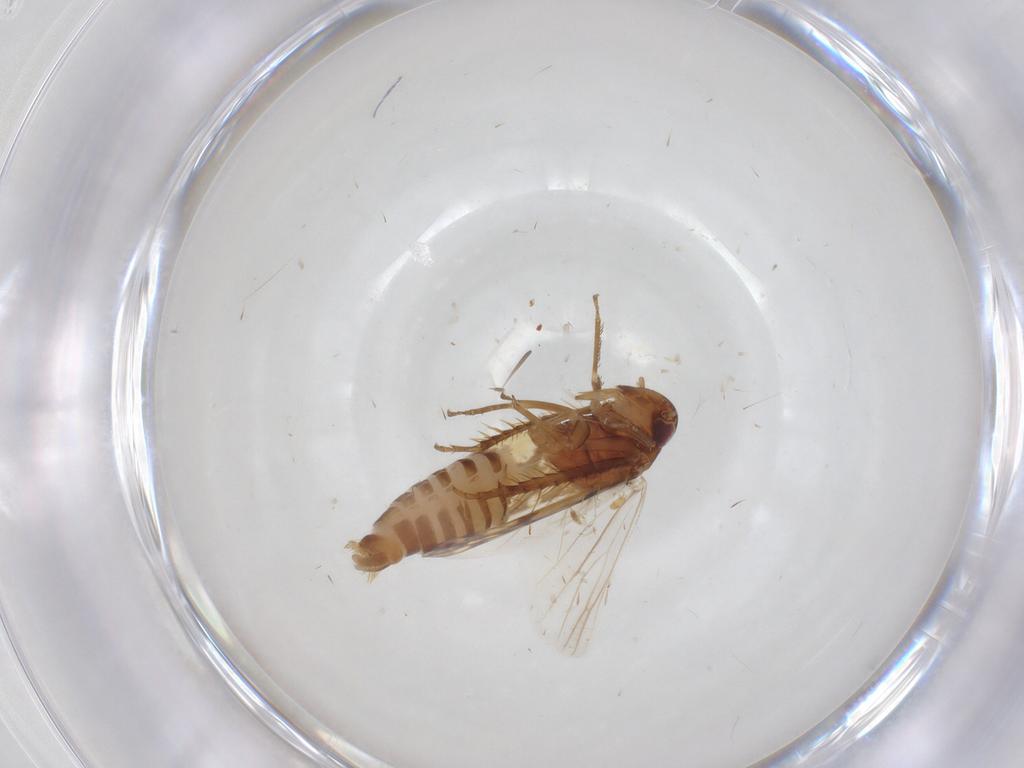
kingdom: Animalia
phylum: Arthropoda
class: Insecta
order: Hemiptera
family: Cicadellidae
